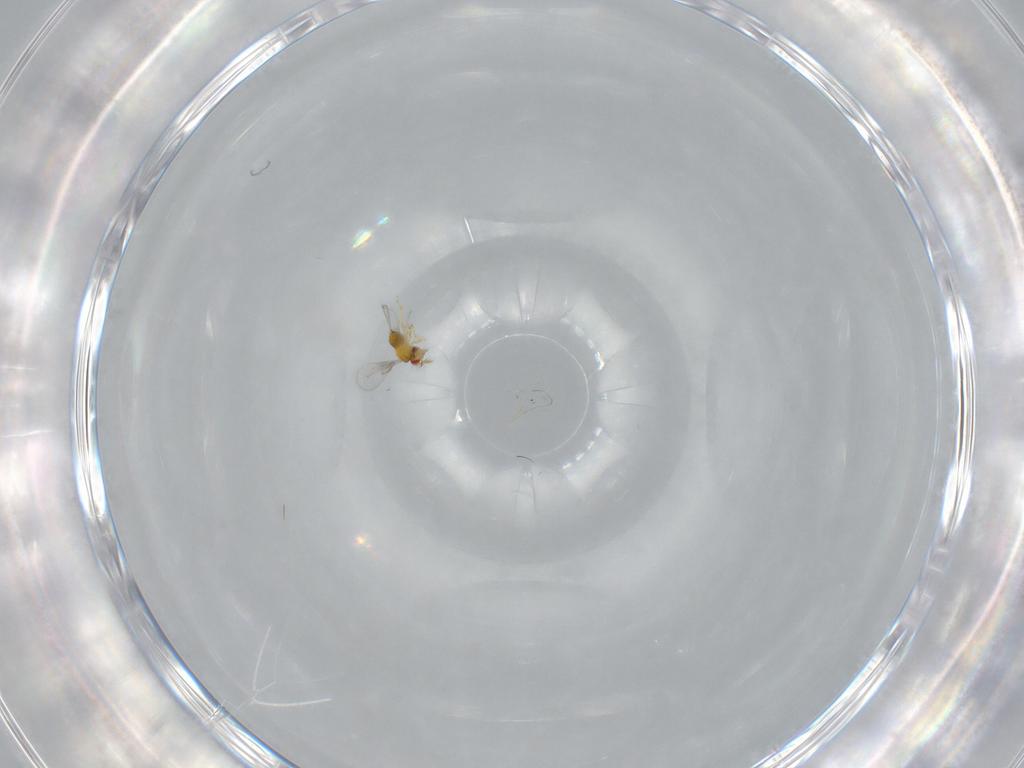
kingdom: Animalia
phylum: Arthropoda
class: Insecta
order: Hymenoptera
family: Trichogrammatidae
